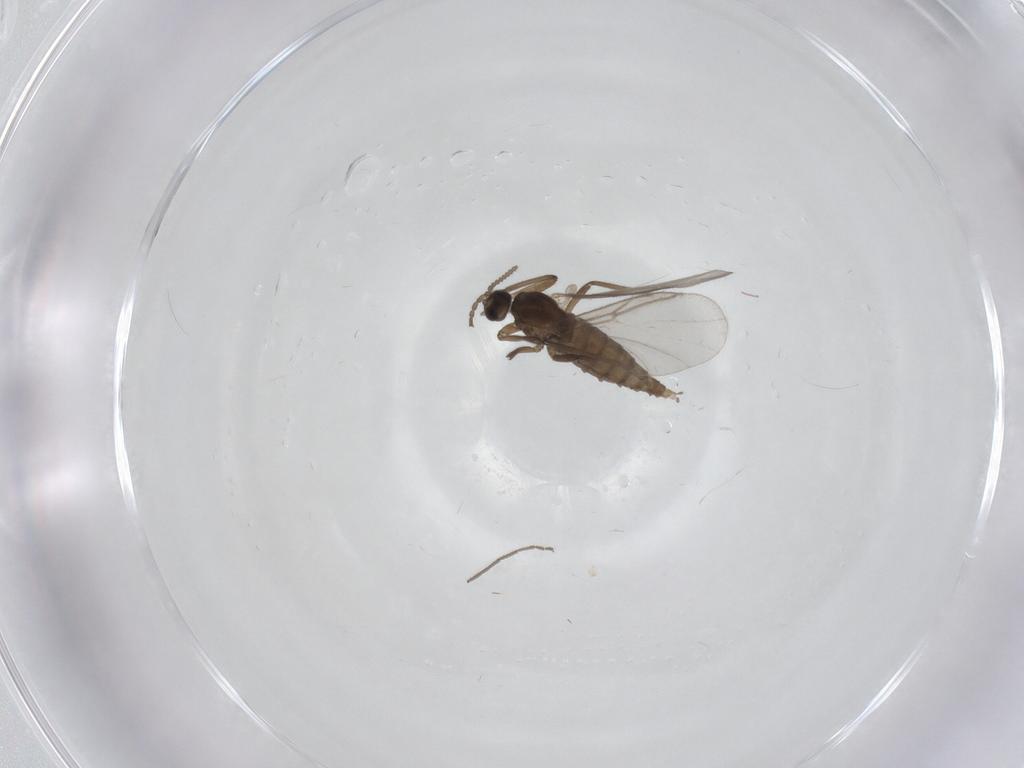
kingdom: Animalia
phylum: Arthropoda
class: Insecta
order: Diptera
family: Cecidomyiidae
